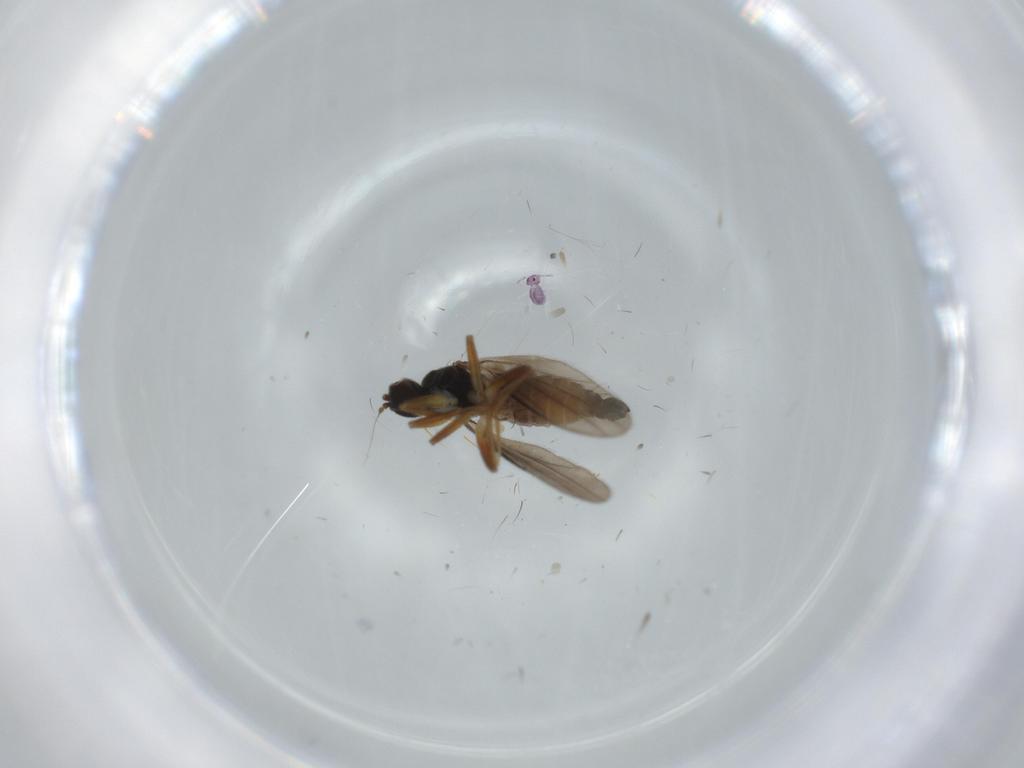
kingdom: Animalia
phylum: Arthropoda
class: Insecta
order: Diptera
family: Hybotidae
